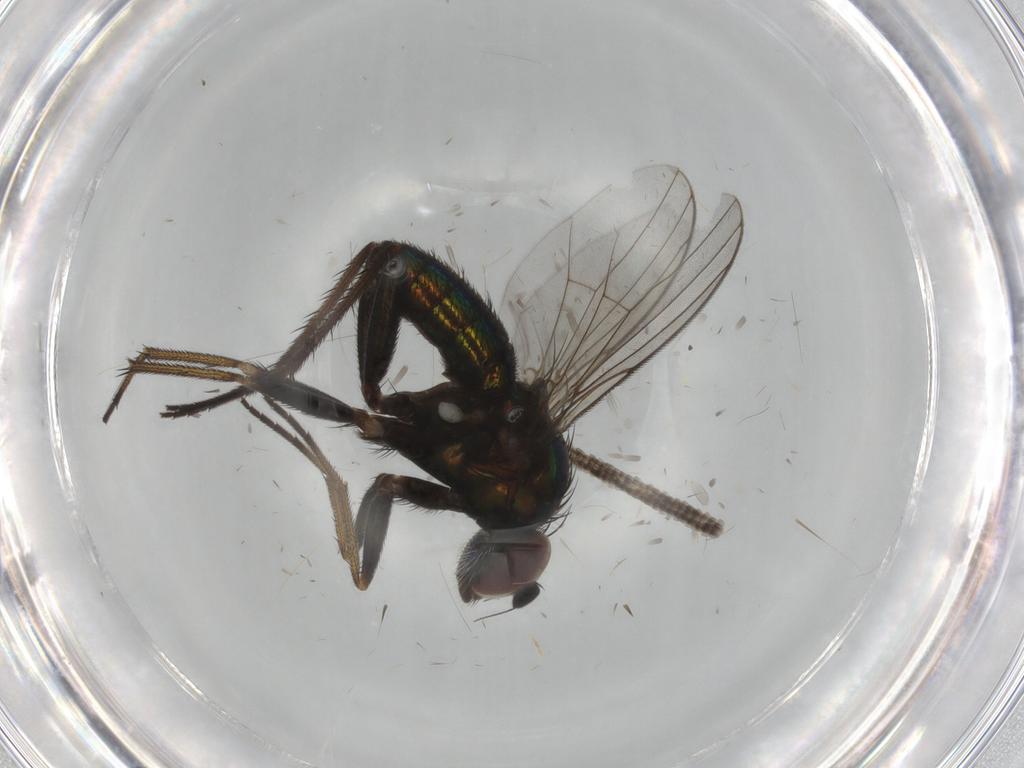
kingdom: Animalia
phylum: Arthropoda
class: Insecta
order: Diptera
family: Dolichopodidae
